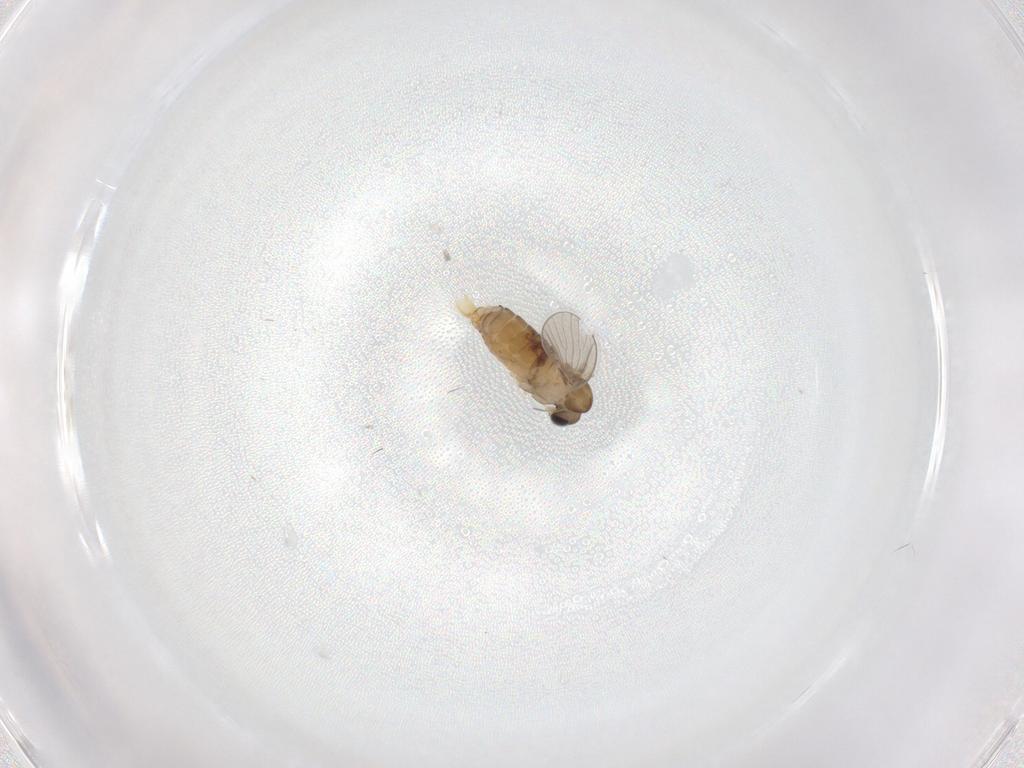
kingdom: Animalia
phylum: Arthropoda
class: Insecta
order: Diptera
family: Psychodidae
